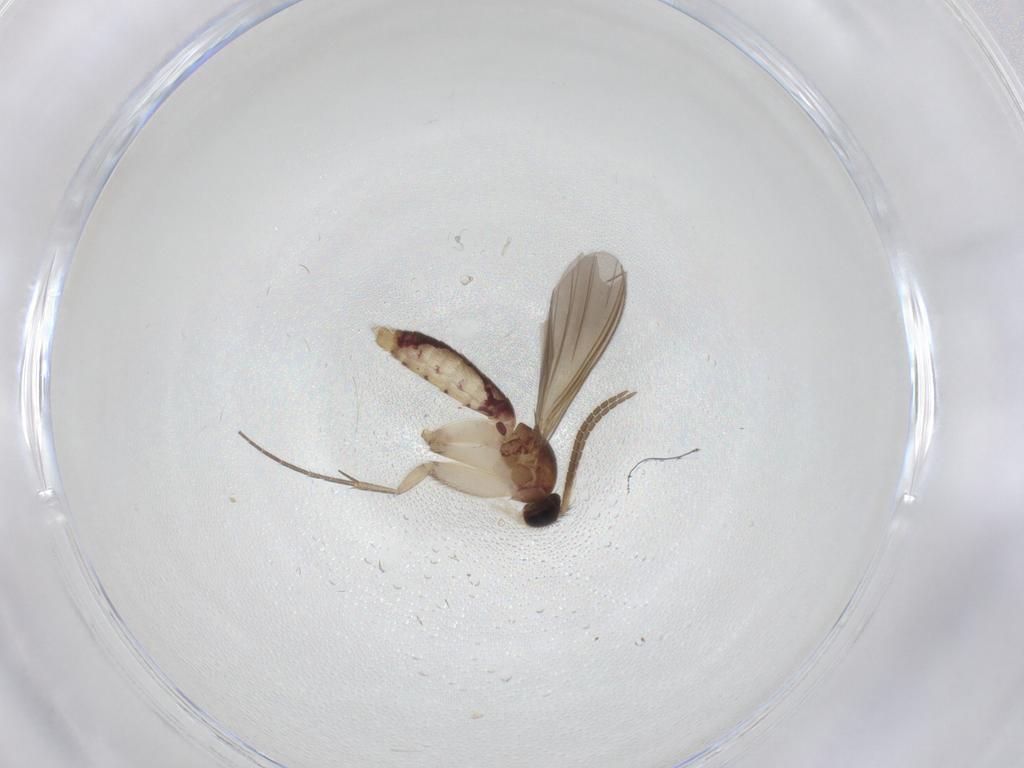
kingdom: Animalia
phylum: Arthropoda
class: Insecta
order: Diptera
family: Mycetophilidae
